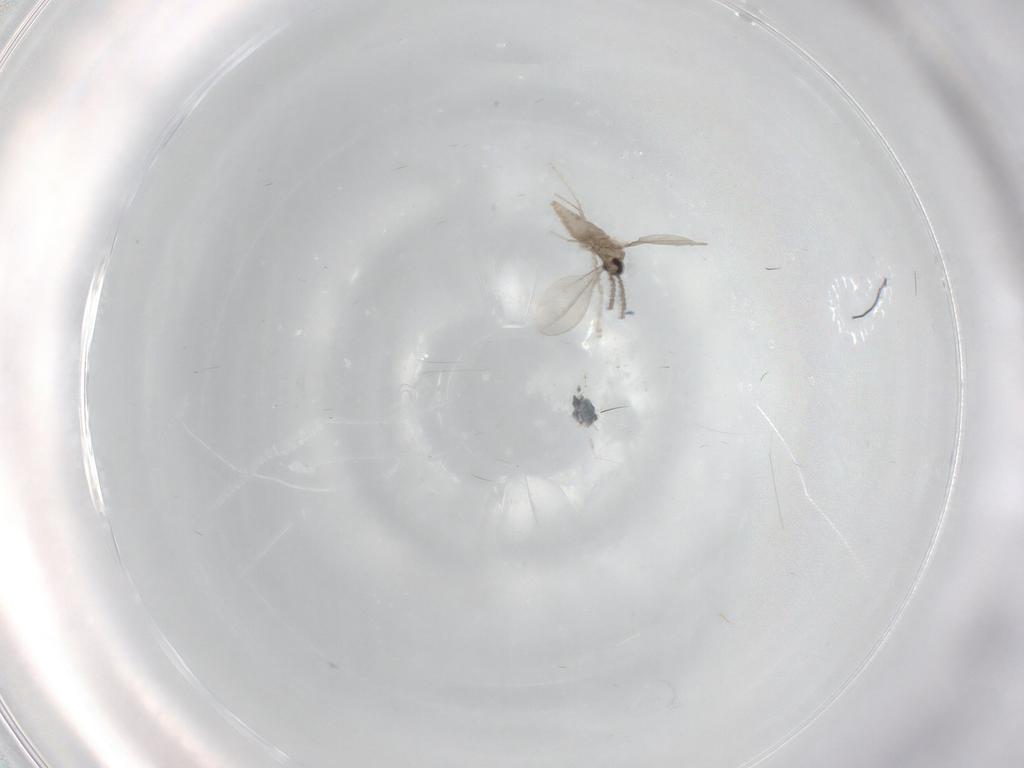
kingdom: Animalia
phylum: Arthropoda
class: Insecta
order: Diptera
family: Cecidomyiidae
